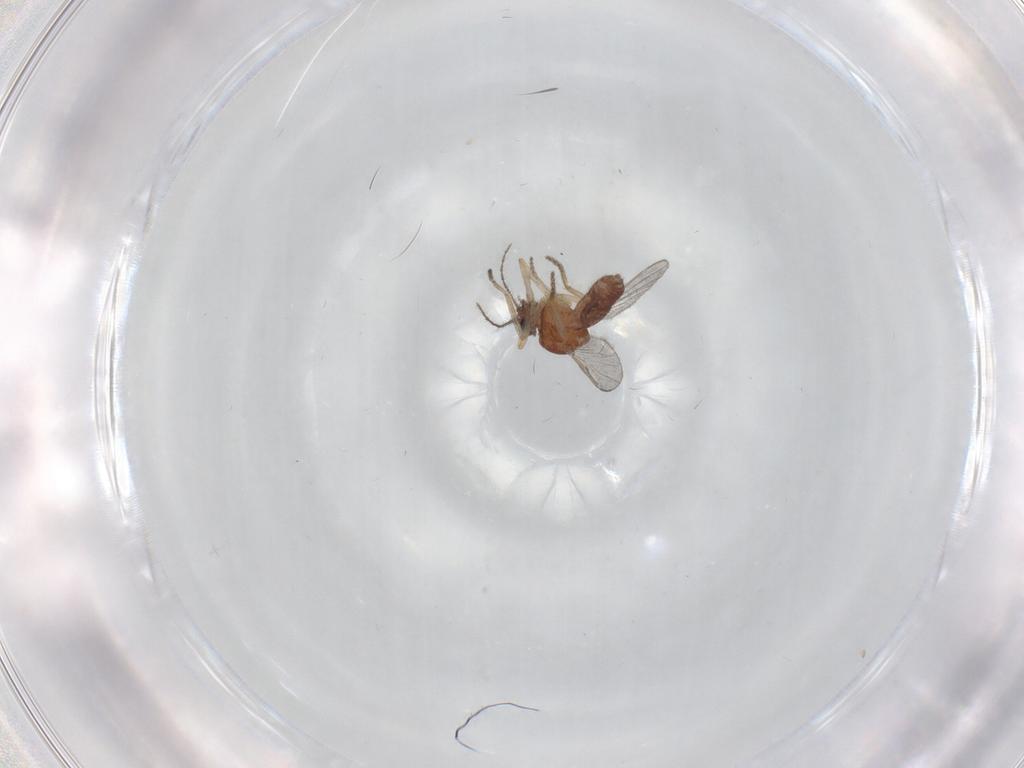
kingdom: Animalia
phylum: Arthropoda
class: Insecta
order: Diptera
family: Ceratopogonidae
